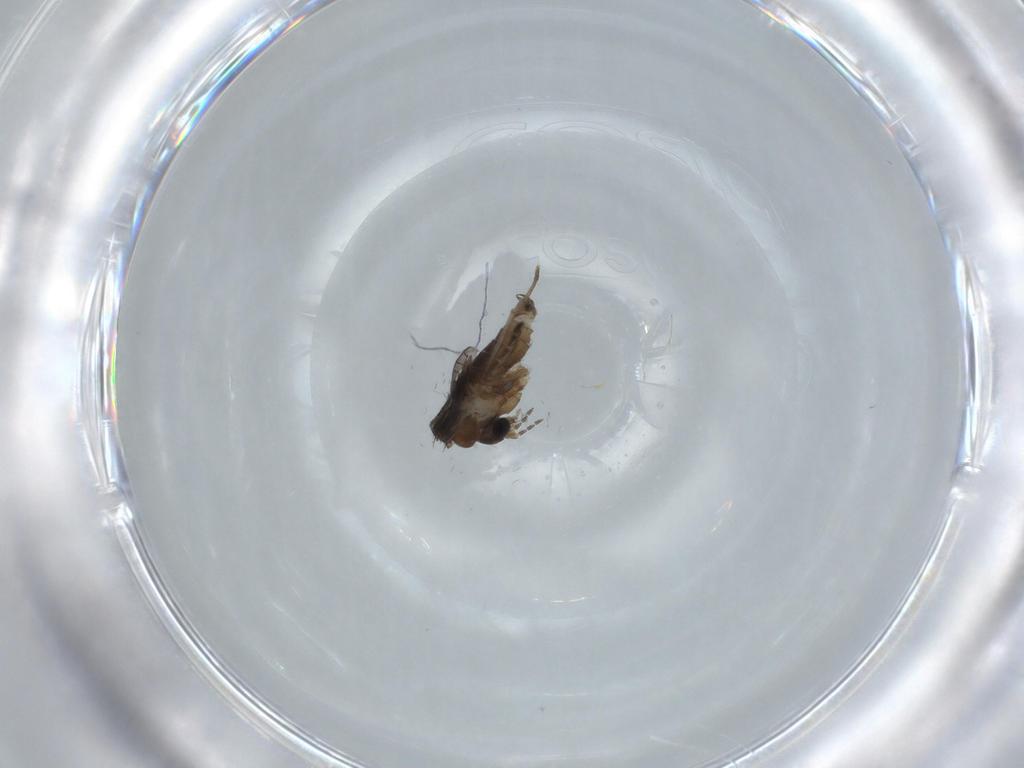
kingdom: Animalia
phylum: Arthropoda
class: Insecta
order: Diptera
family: Psychodidae
